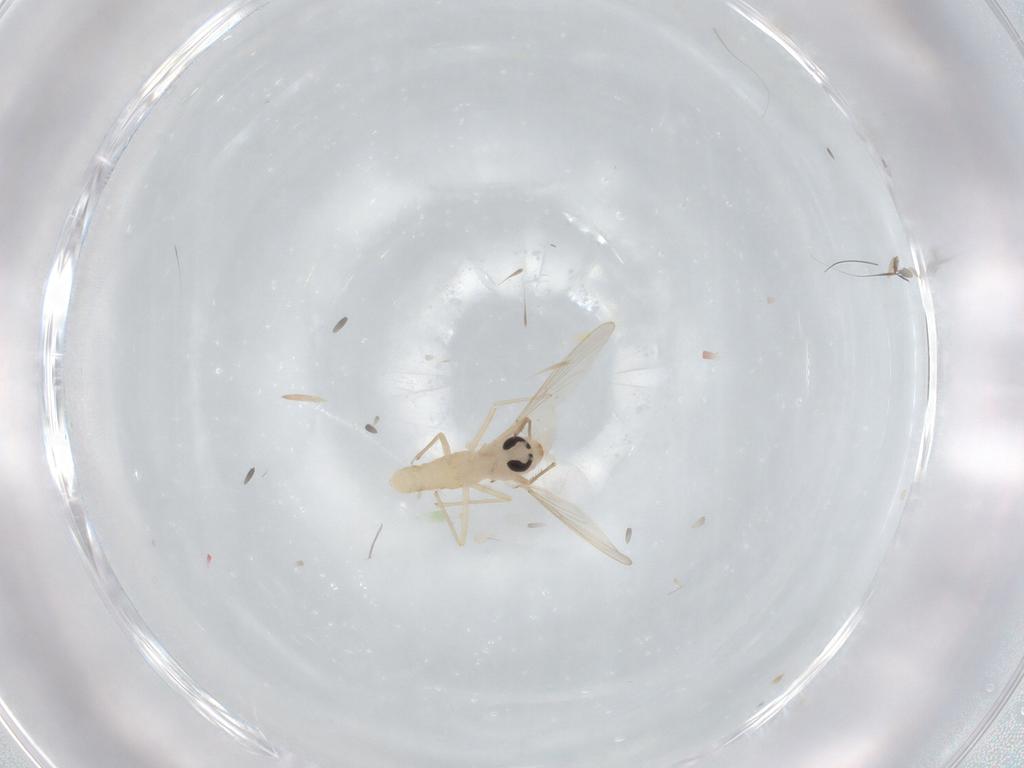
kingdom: Animalia
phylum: Arthropoda
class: Insecta
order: Diptera
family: Chironomidae
